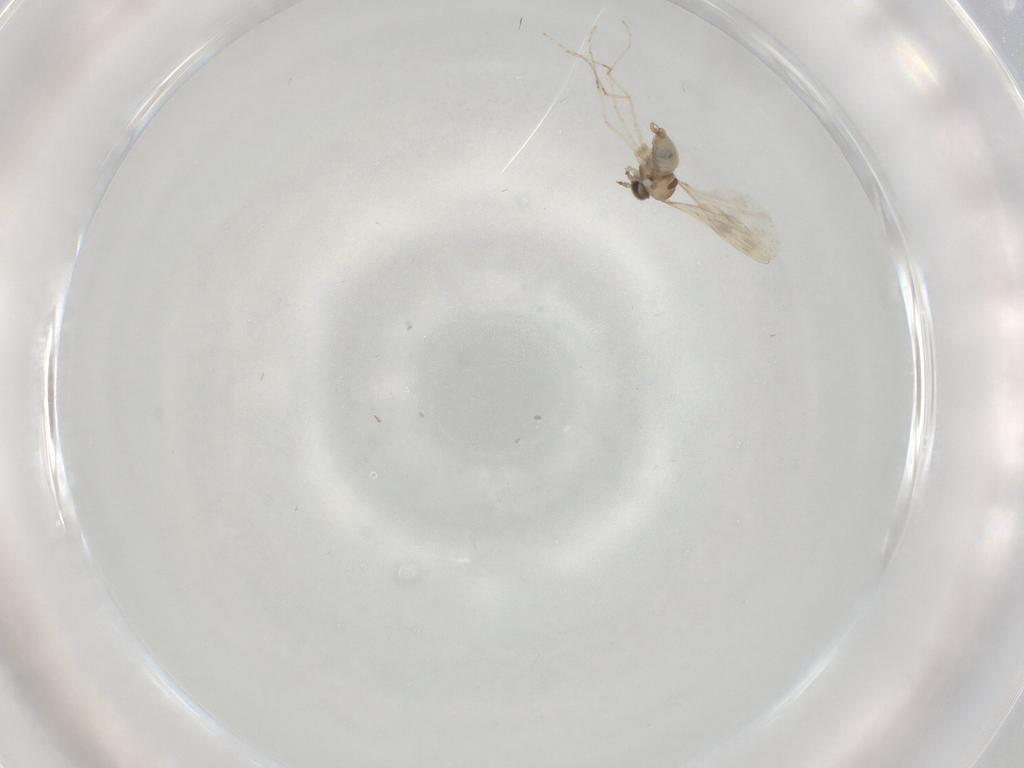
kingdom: Animalia
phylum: Arthropoda
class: Insecta
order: Diptera
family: Cecidomyiidae
